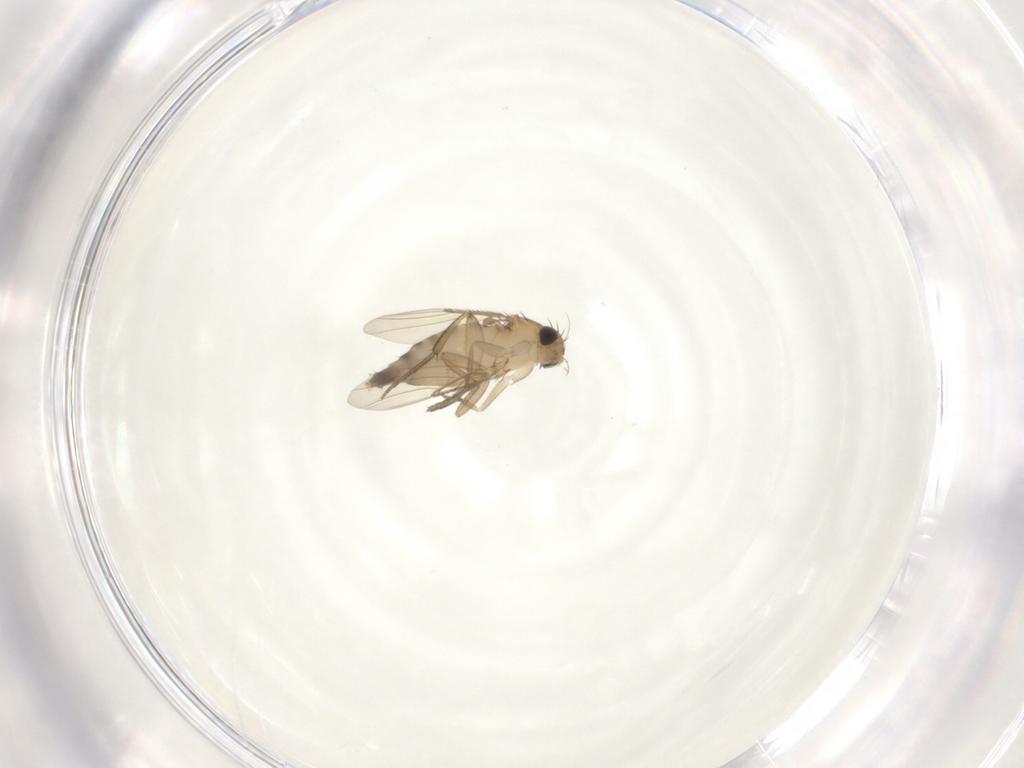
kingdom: Animalia
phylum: Arthropoda
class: Insecta
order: Diptera
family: Phoridae
